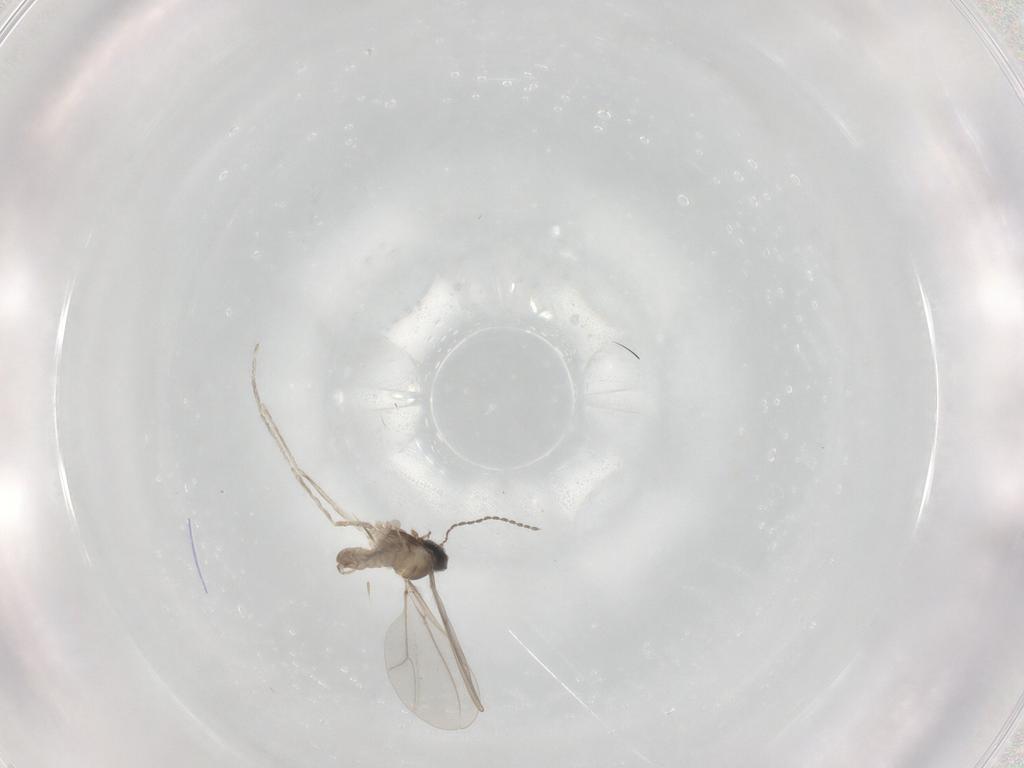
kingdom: Animalia
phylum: Arthropoda
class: Insecta
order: Diptera
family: Cecidomyiidae
